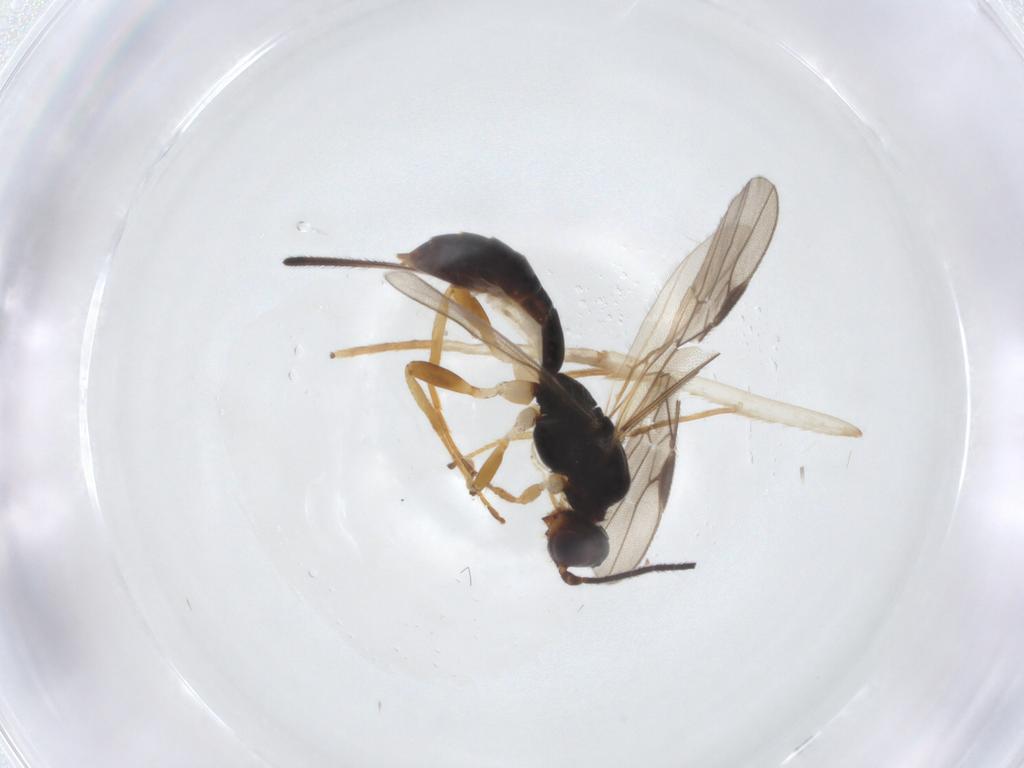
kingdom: Animalia
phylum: Arthropoda
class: Insecta
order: Hymenoptera
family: Braconidae
